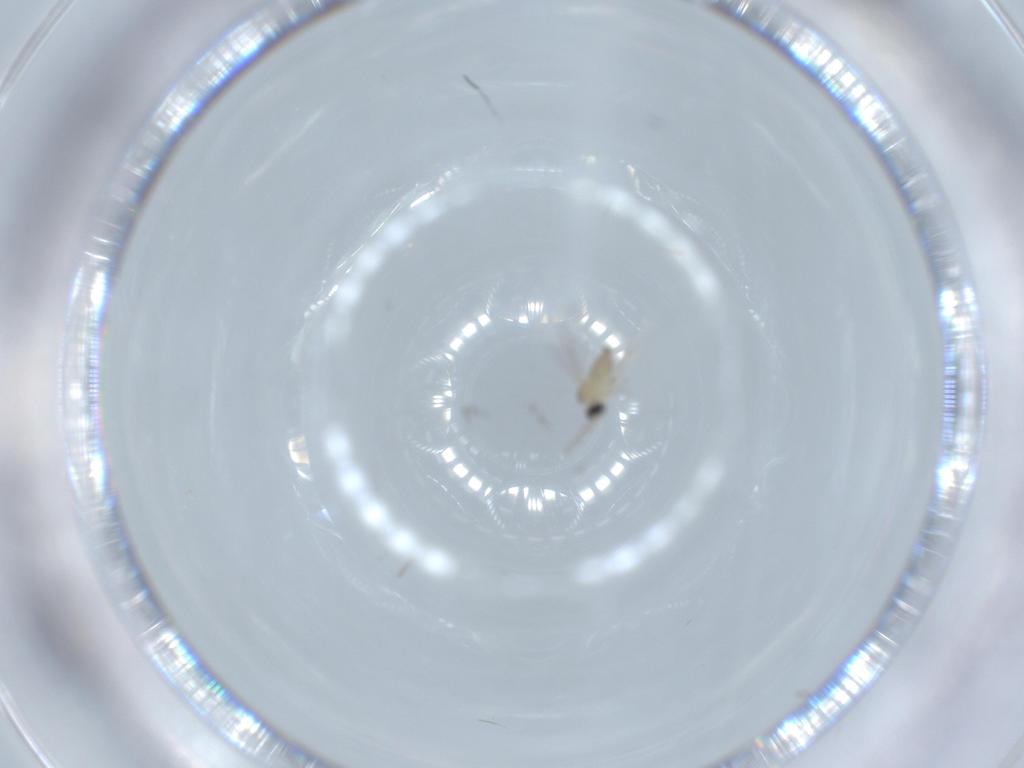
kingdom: Animalia
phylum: Arthropoda
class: Insecta
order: Diptera
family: Cecidomyiidae
